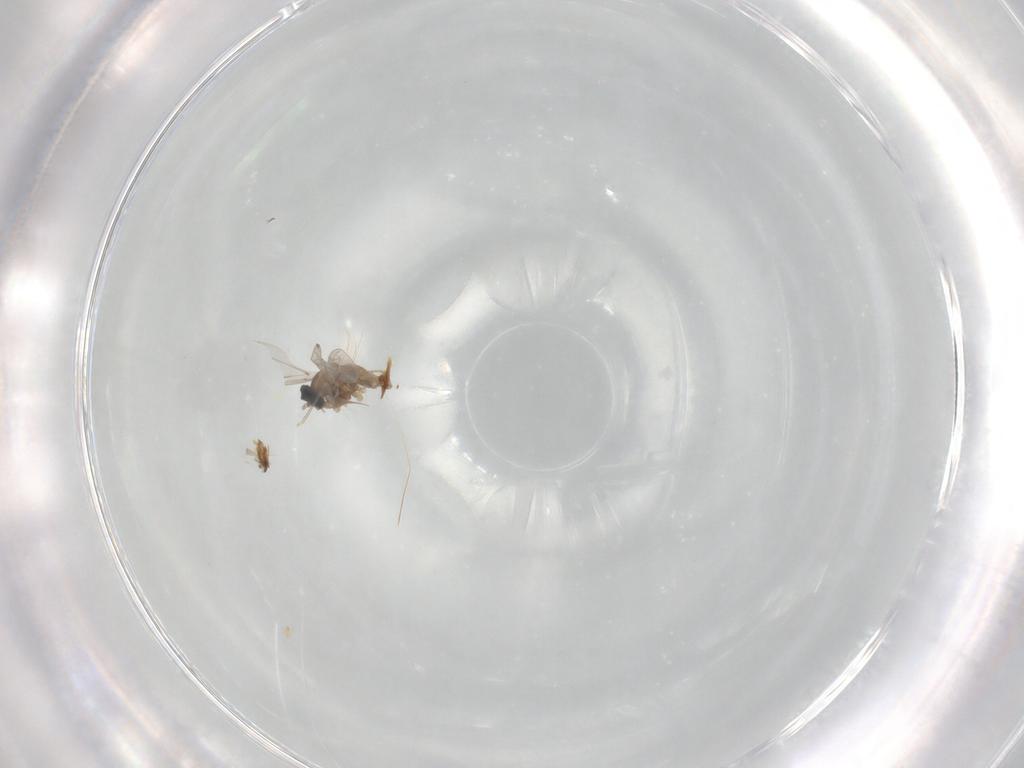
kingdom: Animalia
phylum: Arthropoda
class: Insecta
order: Diptera
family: Cecidomyiidae
